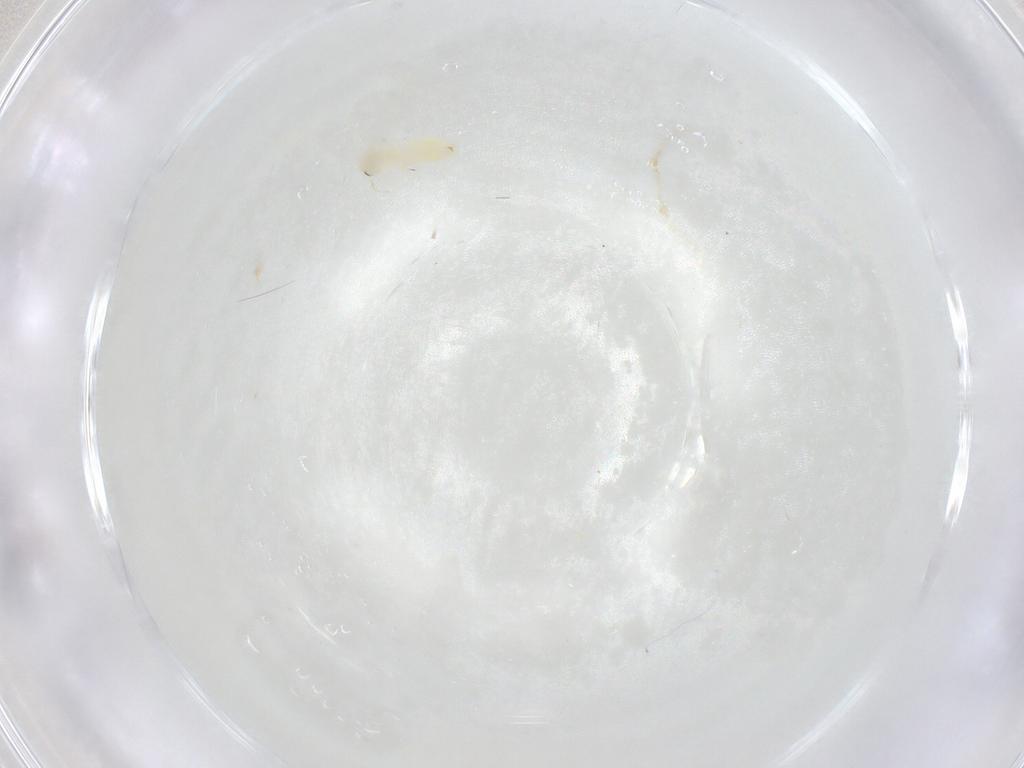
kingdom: Animalia
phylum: Arthropoda
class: Insecta
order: Hemiptera
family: Aleyrodidae
